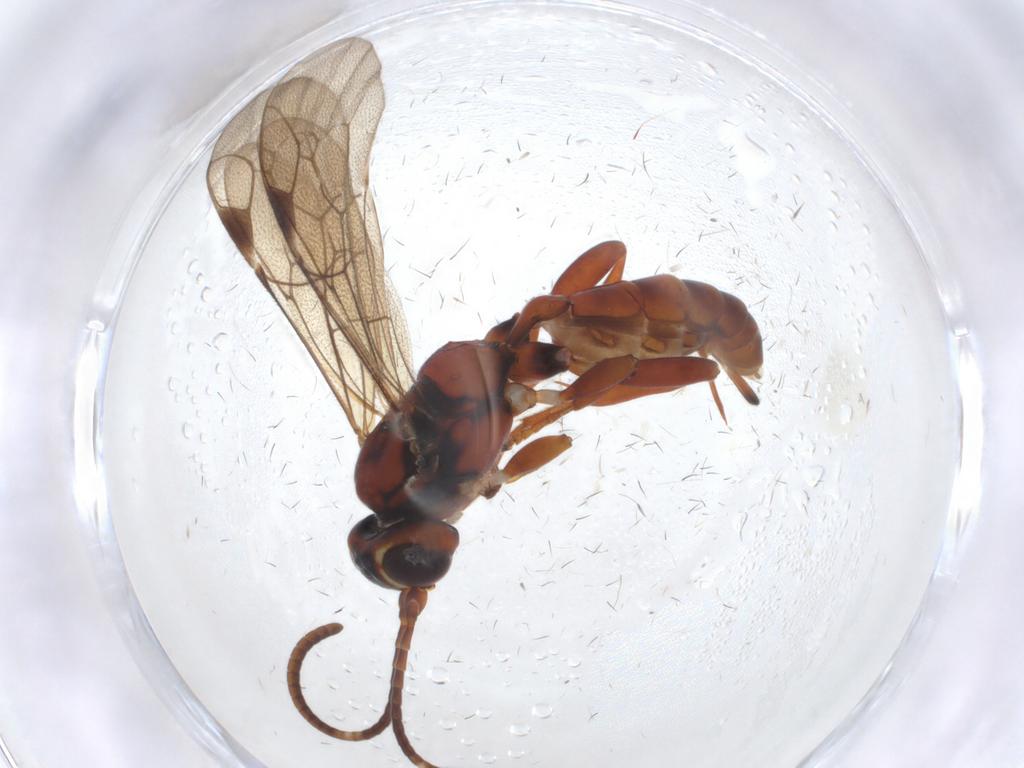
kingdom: Animalia
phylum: Arthropoda
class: Insecta
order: Hymenoptera
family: Ichneumonidae
